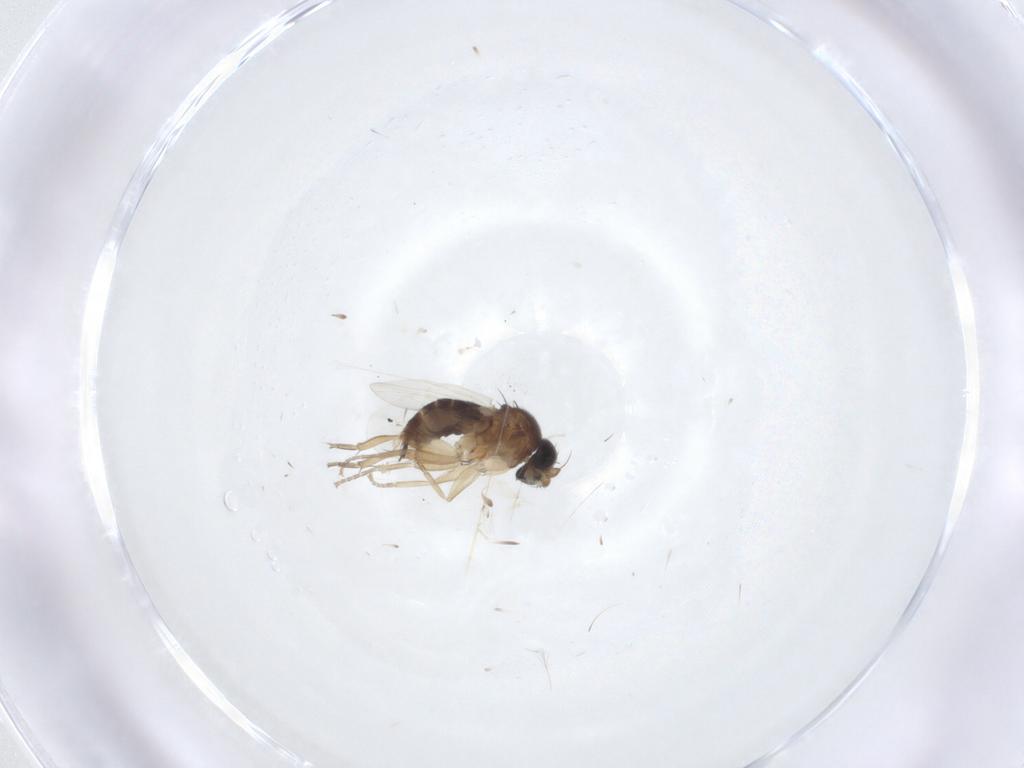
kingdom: Animalia
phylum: Arthropoda
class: Insecta
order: Diptera
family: Phoridae
